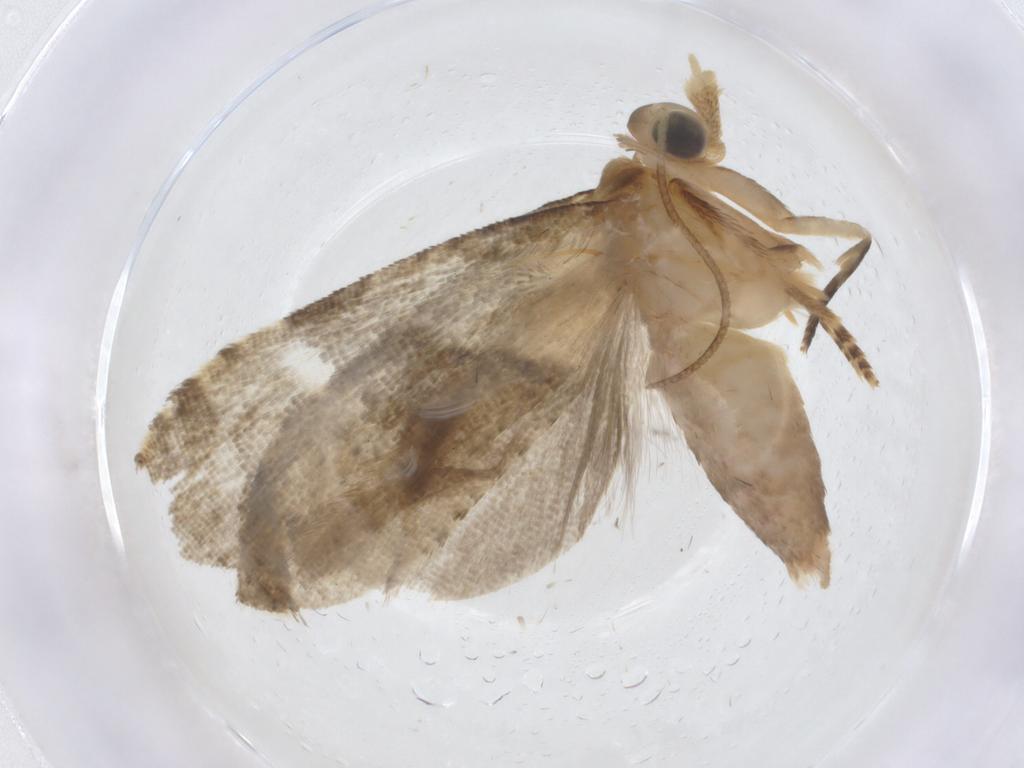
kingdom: Animalia
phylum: Arthropoda
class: Insecta
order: Lepidoptera
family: Tortricidae
